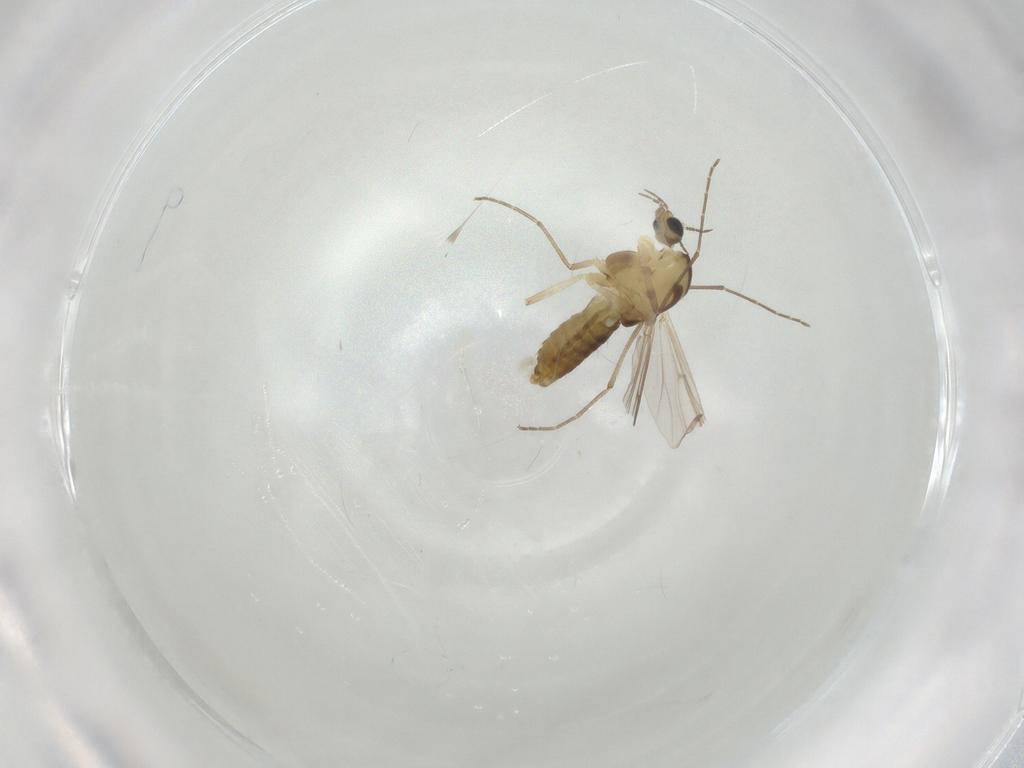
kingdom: Animalia
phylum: Arthropoda
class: Insecta
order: Diptera
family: Chironomidae
